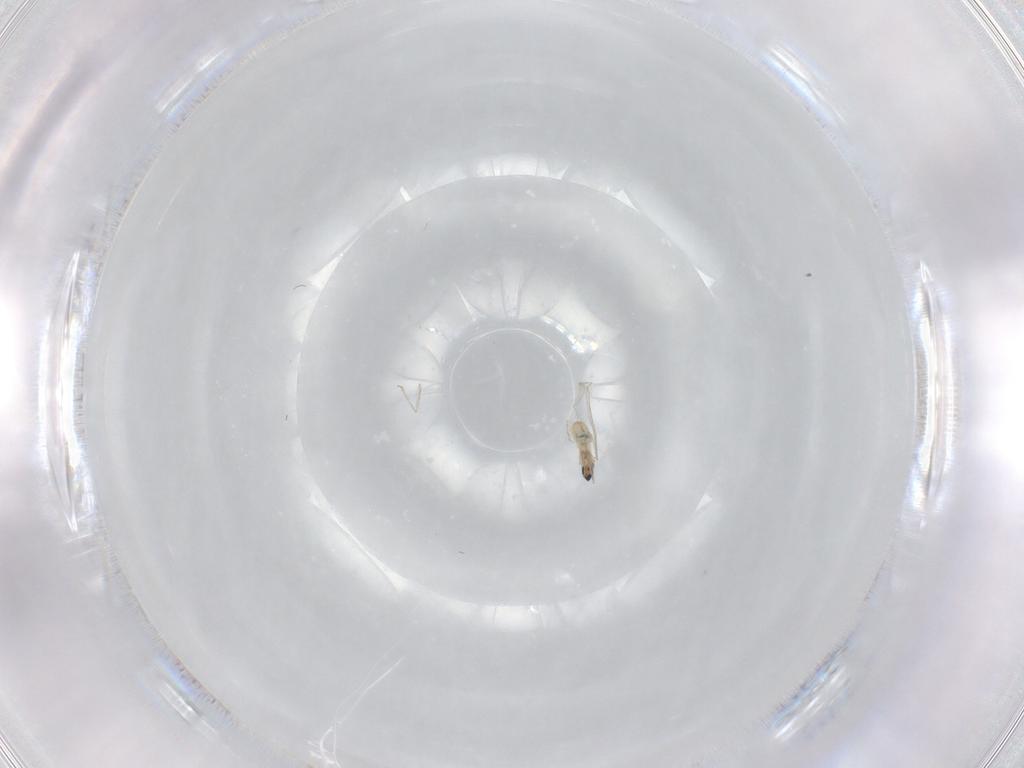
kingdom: Animalia
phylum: Arthropoda
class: Insecta
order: Diptera
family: Cecidomyiidae
